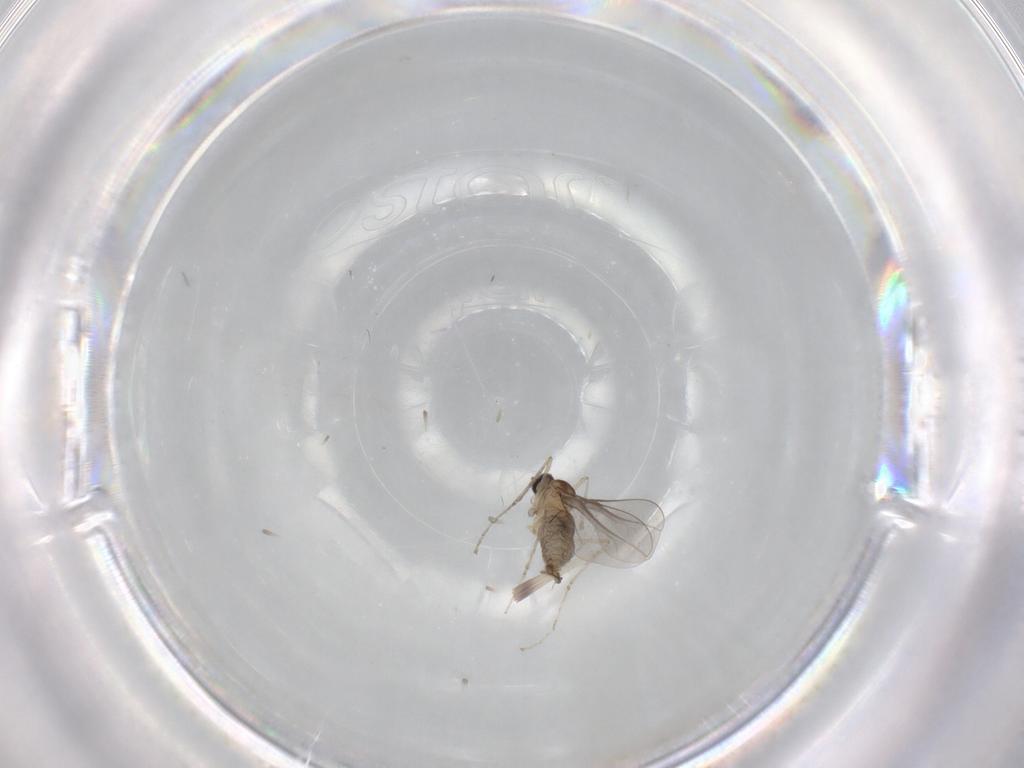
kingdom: Animalia
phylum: Arthropoda
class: Insecta
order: Diptera
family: Cecidomyiidae
